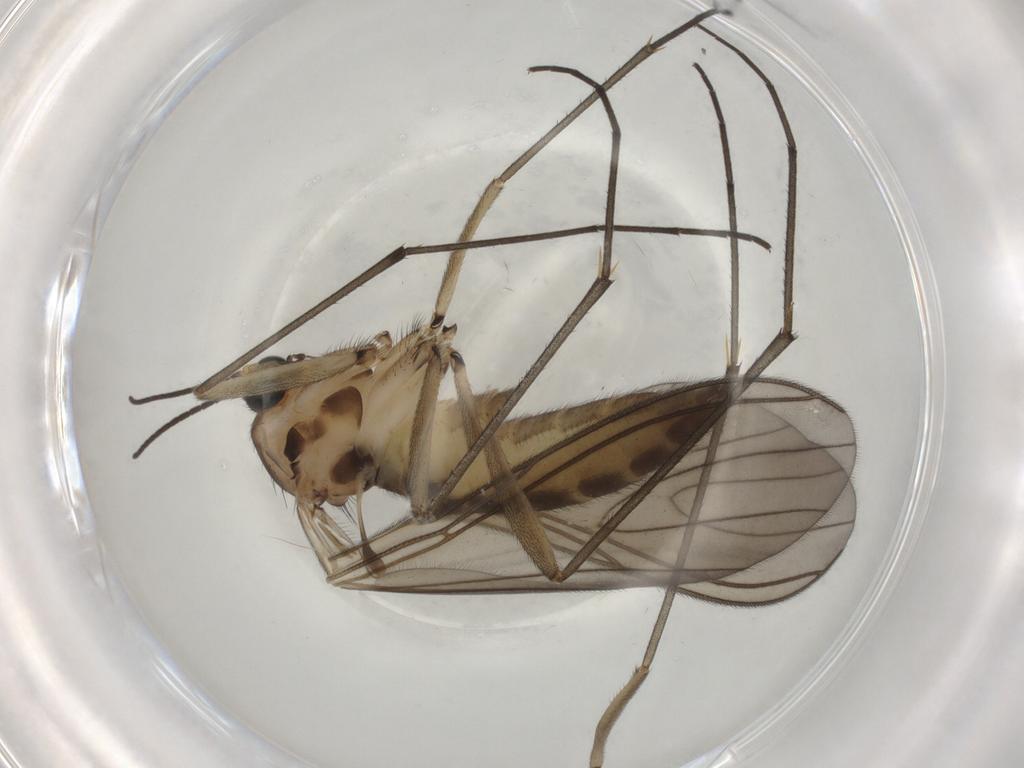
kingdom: Animalia
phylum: Arthropoda
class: Insecta
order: Diptera
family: Sciaridae
